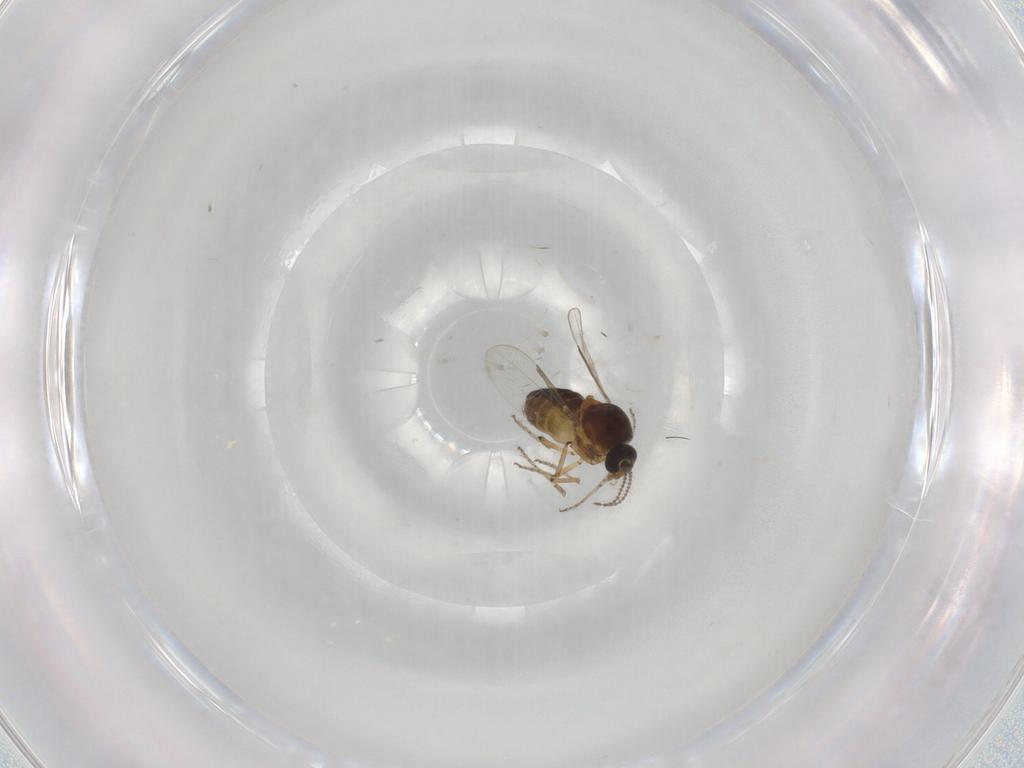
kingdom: Animalia
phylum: Arthropoda
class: Insecta
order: Diptera
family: Ceratopogonidae
